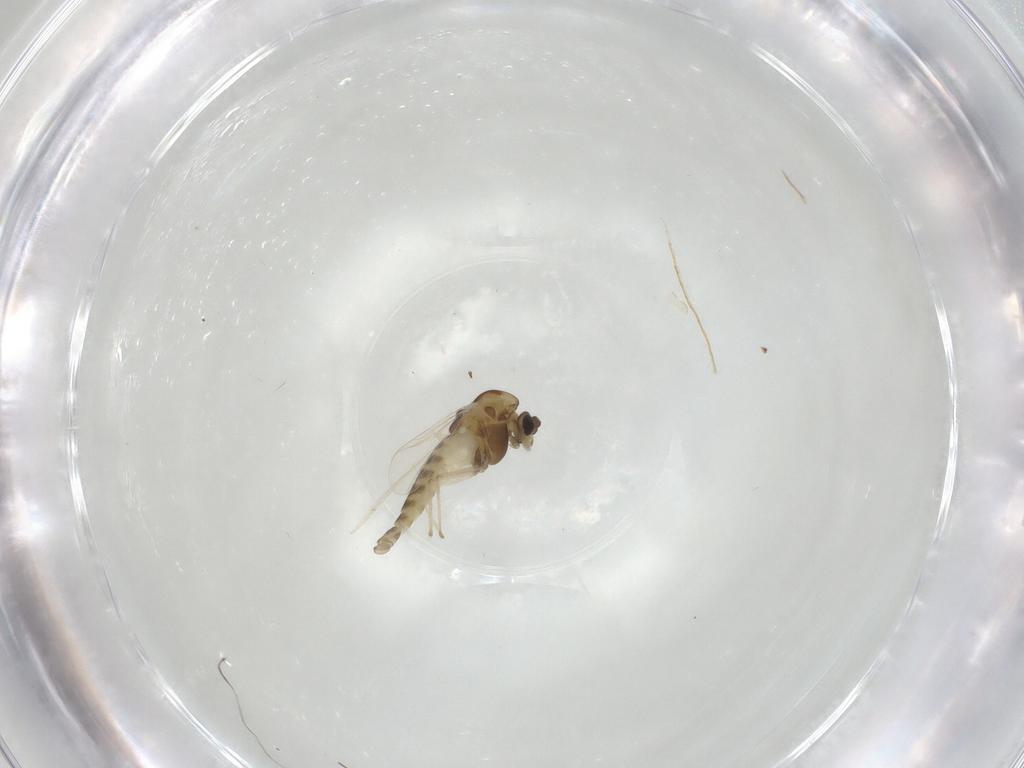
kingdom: Animalia
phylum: Arthropoda
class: Insecta
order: Diptera
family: Chironomidae
